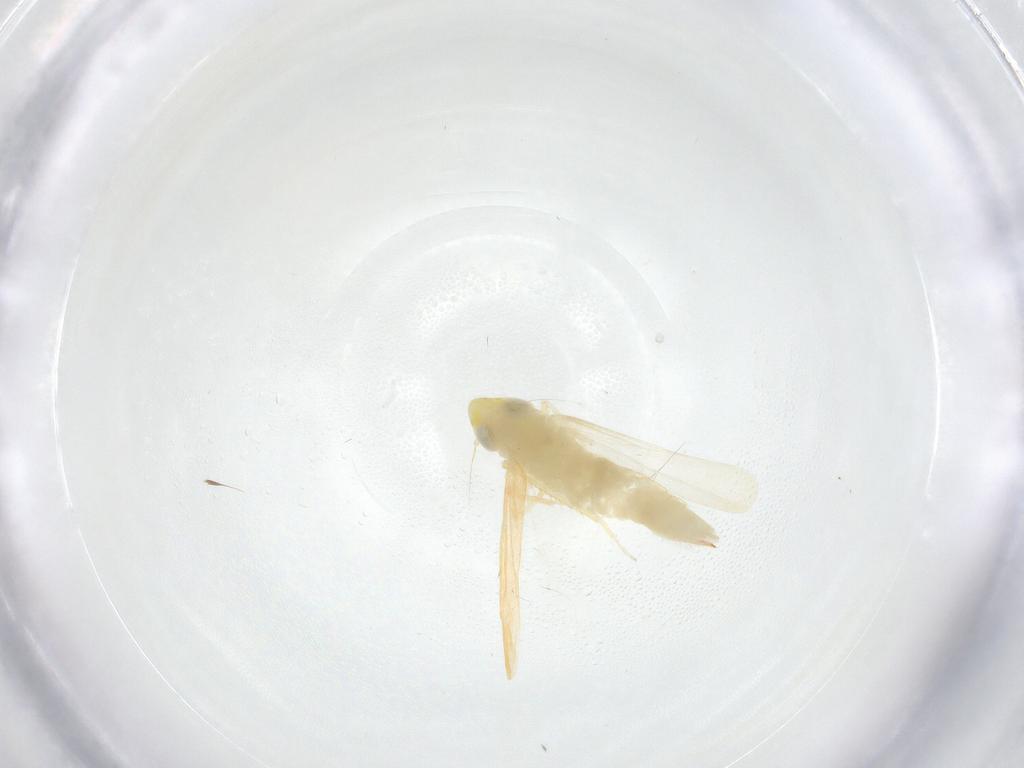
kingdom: Animalia
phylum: Arthropoda
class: Insecta
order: Hemiptera
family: Cicadellidae
